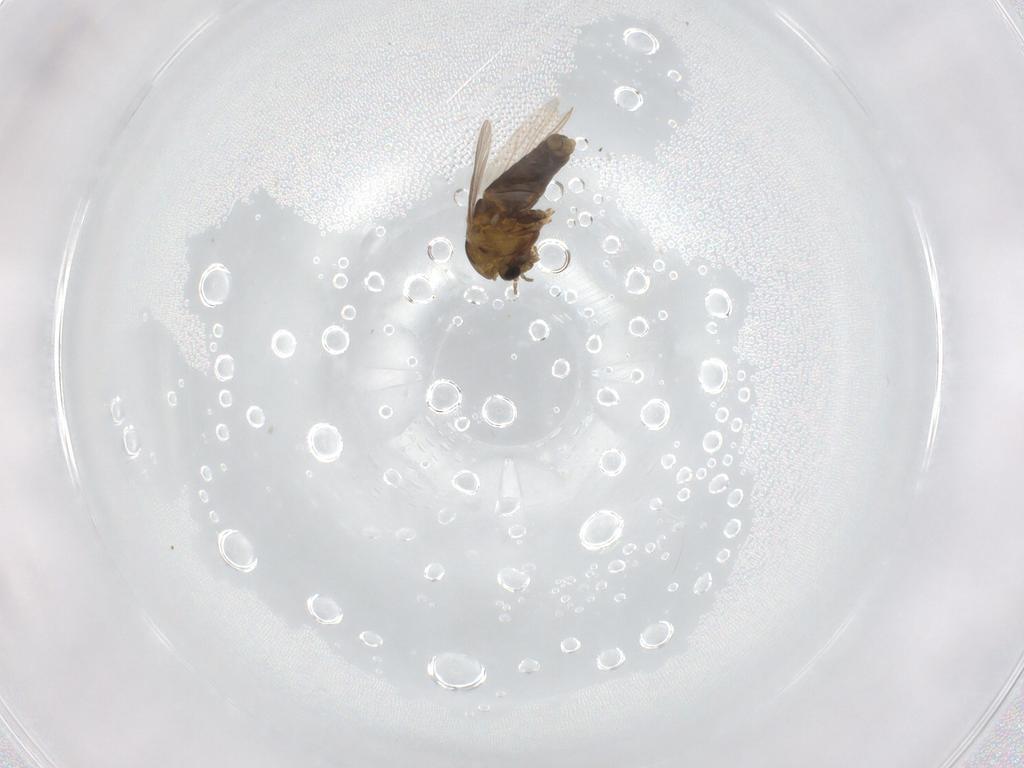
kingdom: Animalia
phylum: Arthropoda
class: Insecta
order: Diptera
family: Chironomidae
